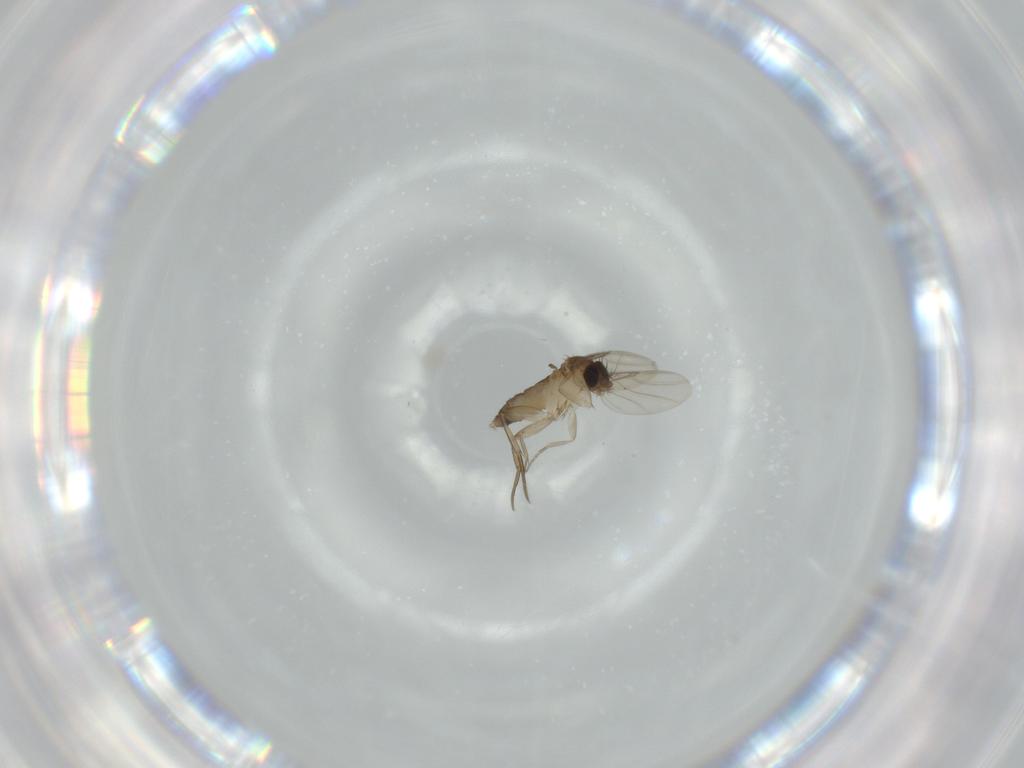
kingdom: Animalia
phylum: Arthropoda
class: Insecta
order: Diptera
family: Phoridae
